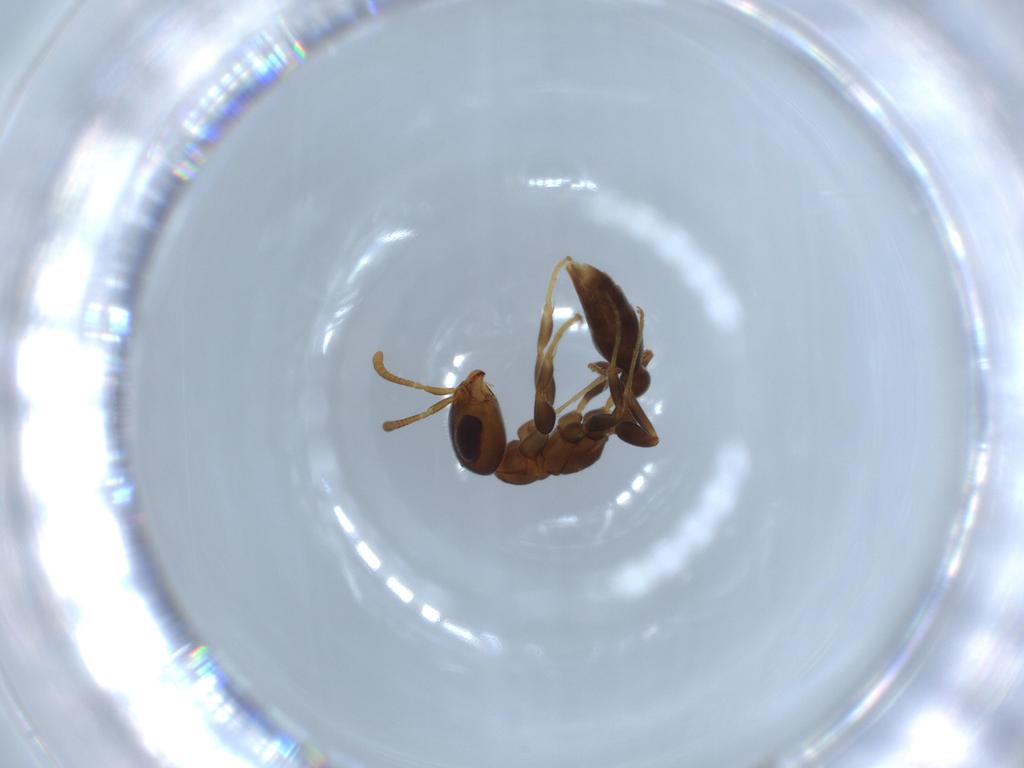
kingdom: Animalia
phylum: Arthropoda
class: Insecta
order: Hymenoptera
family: Formicidae
